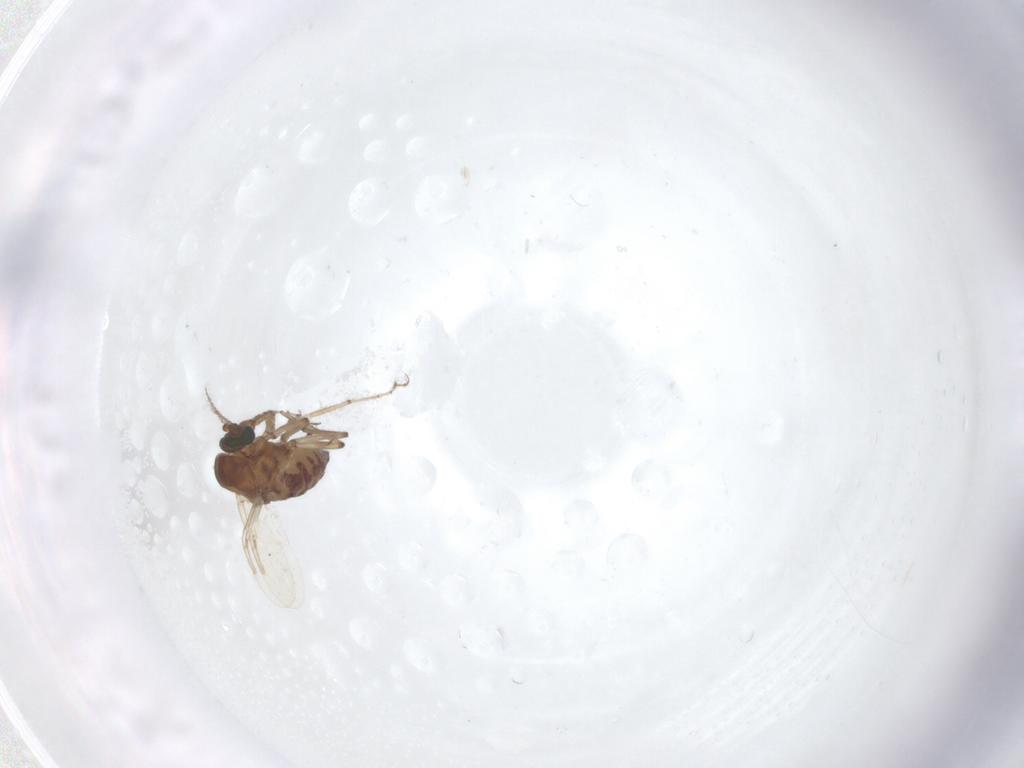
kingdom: Animalia
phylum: Arthropoda
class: Insecta
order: Diptera
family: Ceratopogonidae
